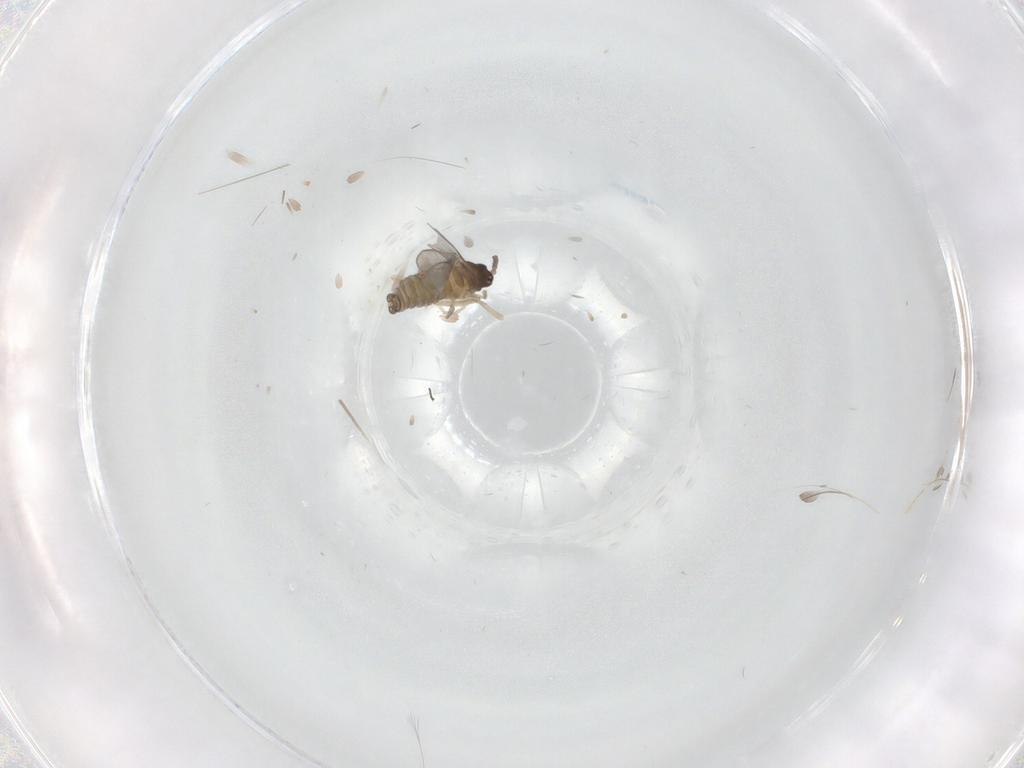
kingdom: Animalia
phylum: Arthropoda
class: Insecta
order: Diptera
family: Cecidomyiidae
